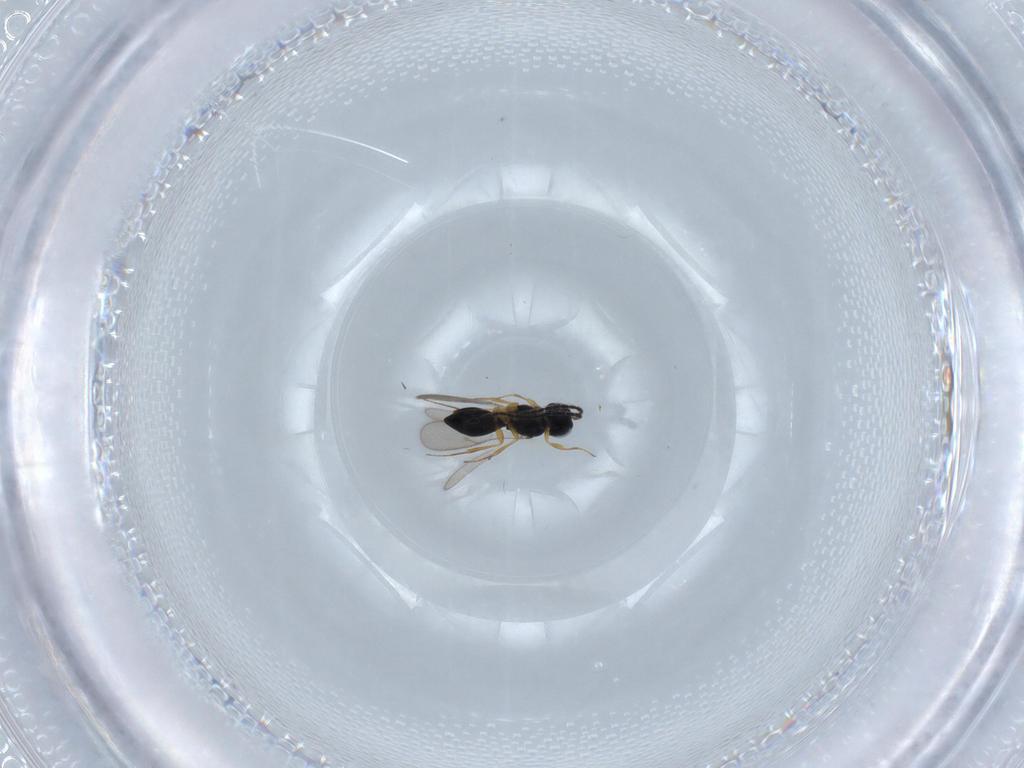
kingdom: Animalia
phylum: Arthropoda
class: Insecta
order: Hymenoptera
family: Scelionidae
